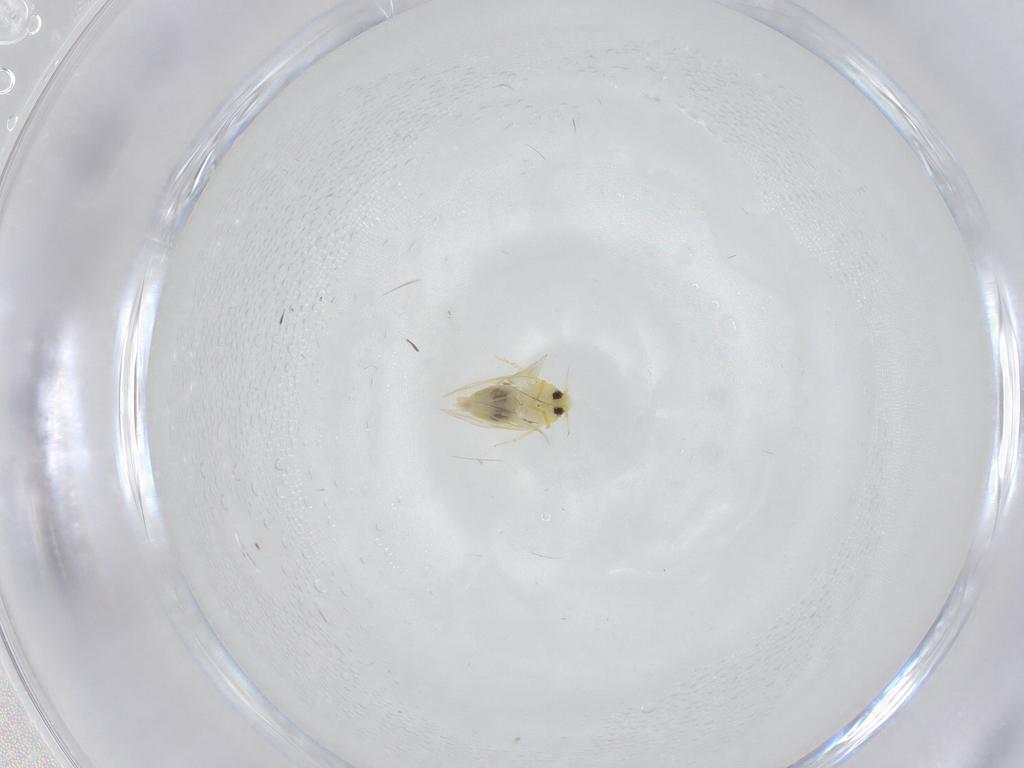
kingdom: Animalia
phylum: Arthropoda
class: Insecta
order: Hemiptera
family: Aleyrodidae
